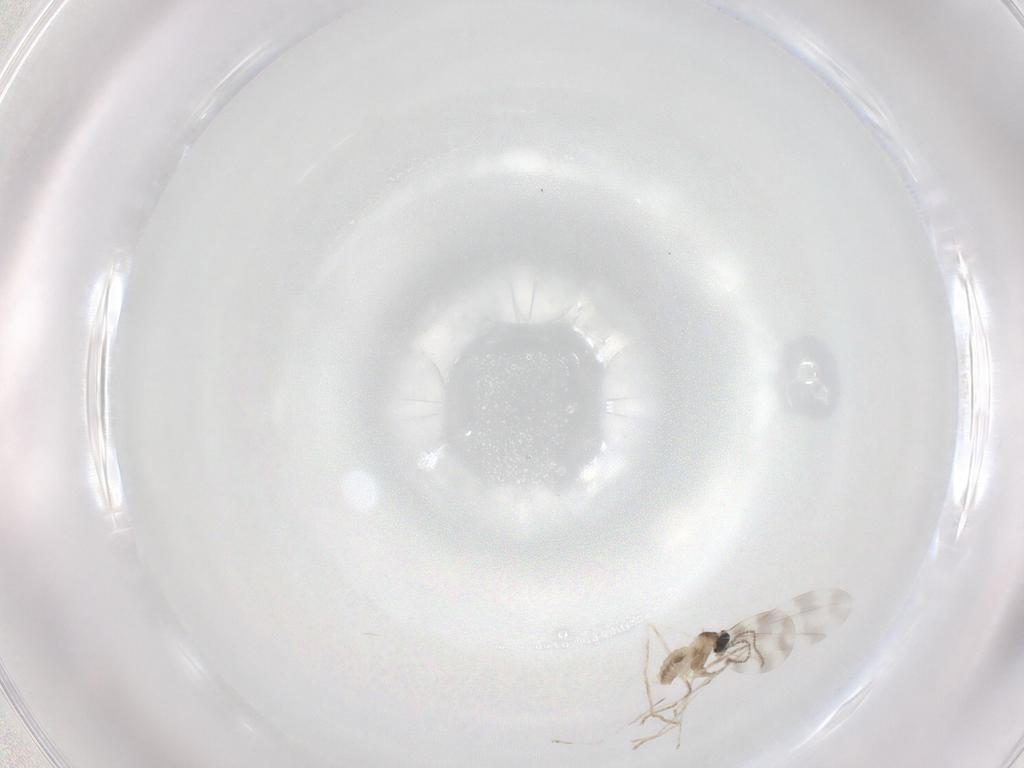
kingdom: Animalia
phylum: Arthropoda
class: Insecta
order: Diptera
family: Cecidomyiidae
